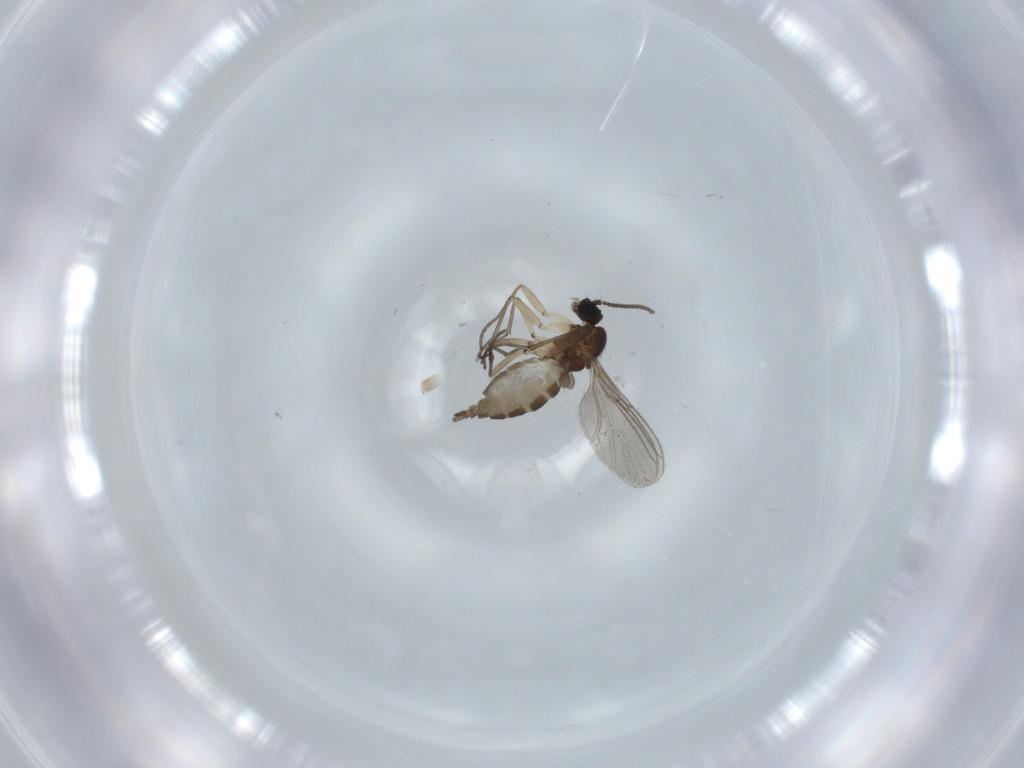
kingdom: Animalia
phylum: Arthropoda
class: Insecta
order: Diptera
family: Sciaridae
